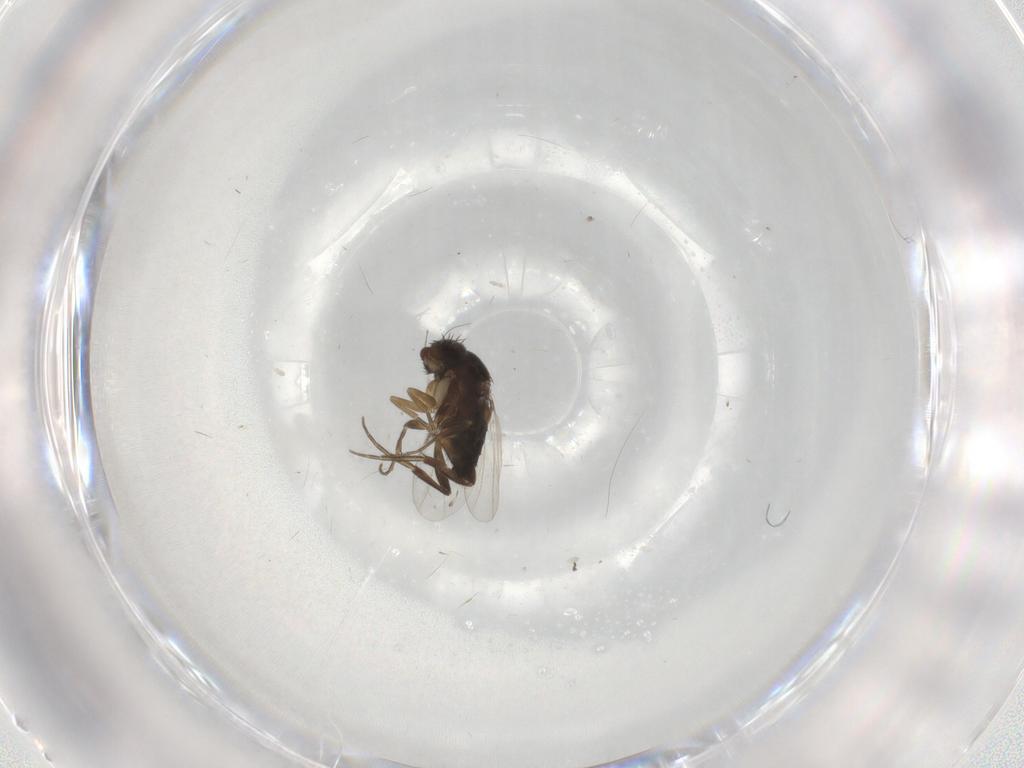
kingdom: Animalia
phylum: Arthropoda
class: Insecta
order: Diptera
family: Phoridae
